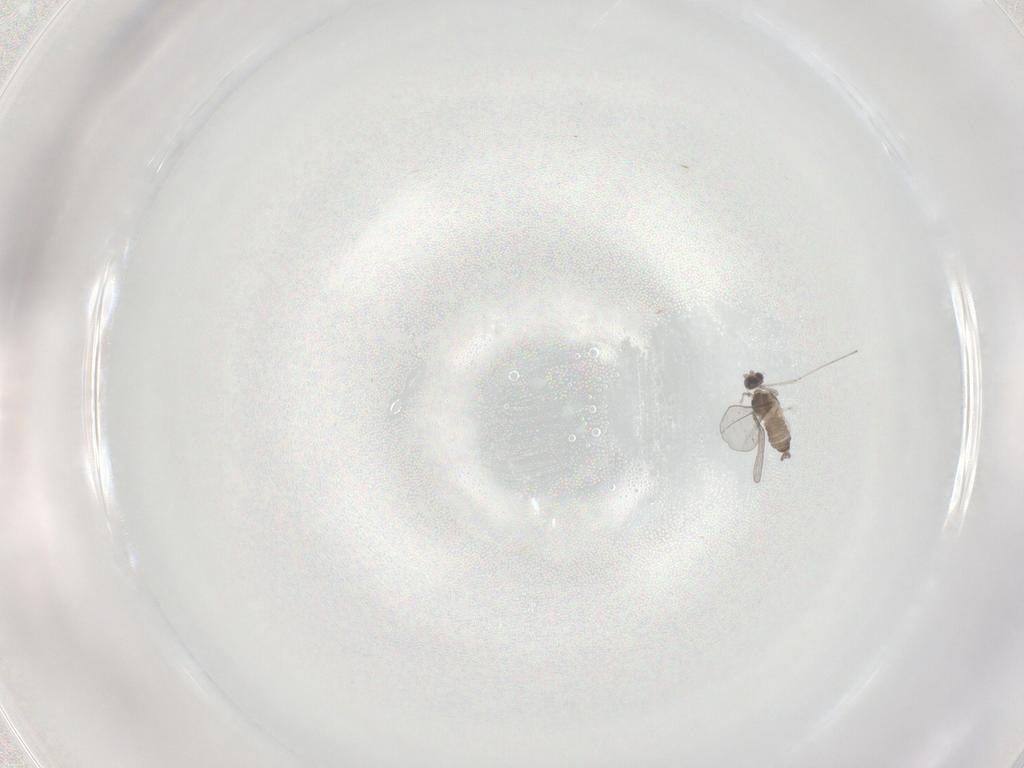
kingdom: Animalia
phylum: Arthropoda
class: Insecta
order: Diptera
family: Cecidomyiidae
